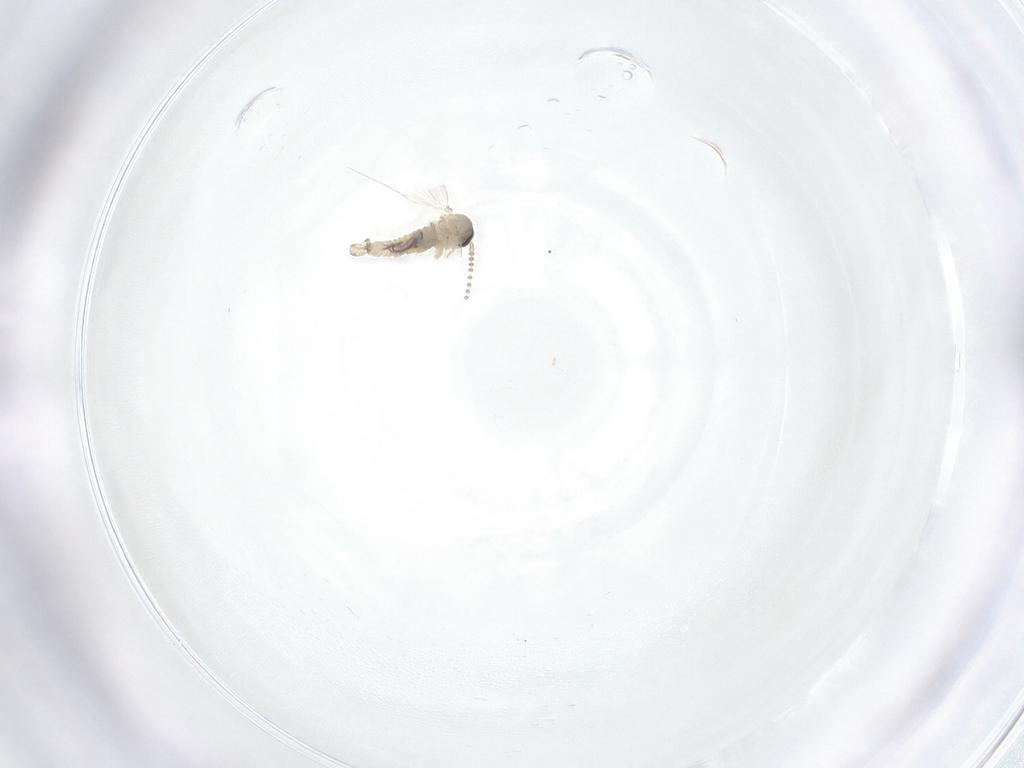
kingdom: Animalia
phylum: Arthropoda
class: Insecta
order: Diptera
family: Psychodidae
